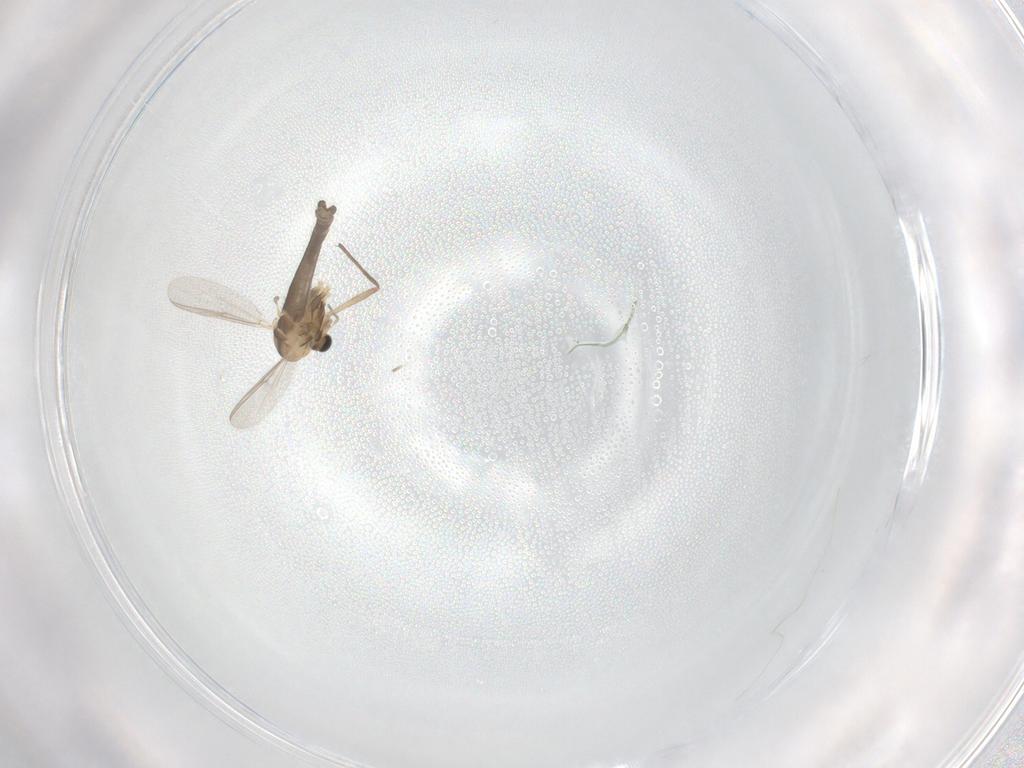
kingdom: Animalia
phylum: Arthropoda
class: Insecta
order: Diptera
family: Chironomidae
